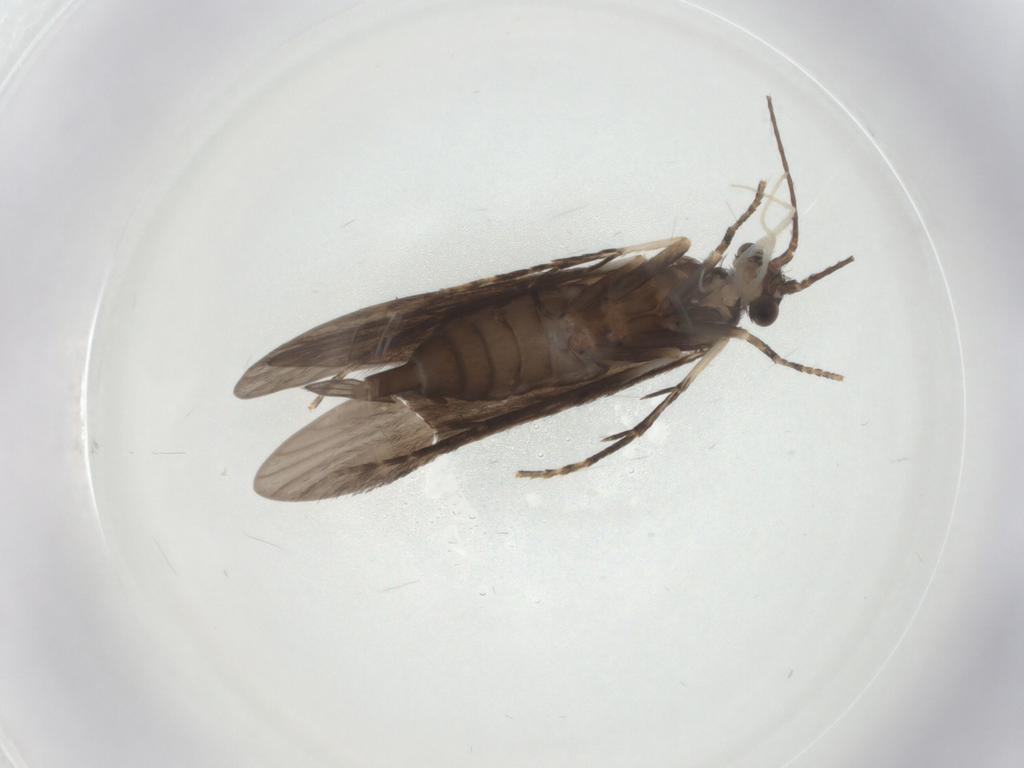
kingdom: Animalia
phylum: Arthropoda
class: Insecta
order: Trichoptera
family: Xiphocentronidae
